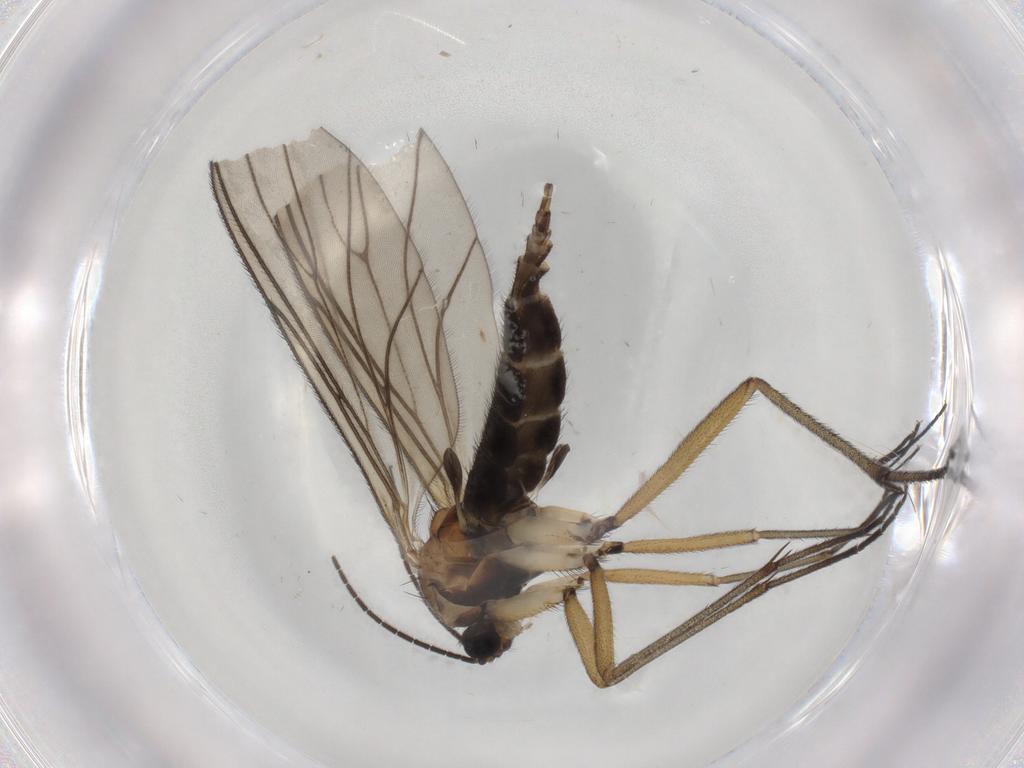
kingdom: Animalia
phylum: Arthropoda
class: Insecta
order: Diptera
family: Sciaridae
